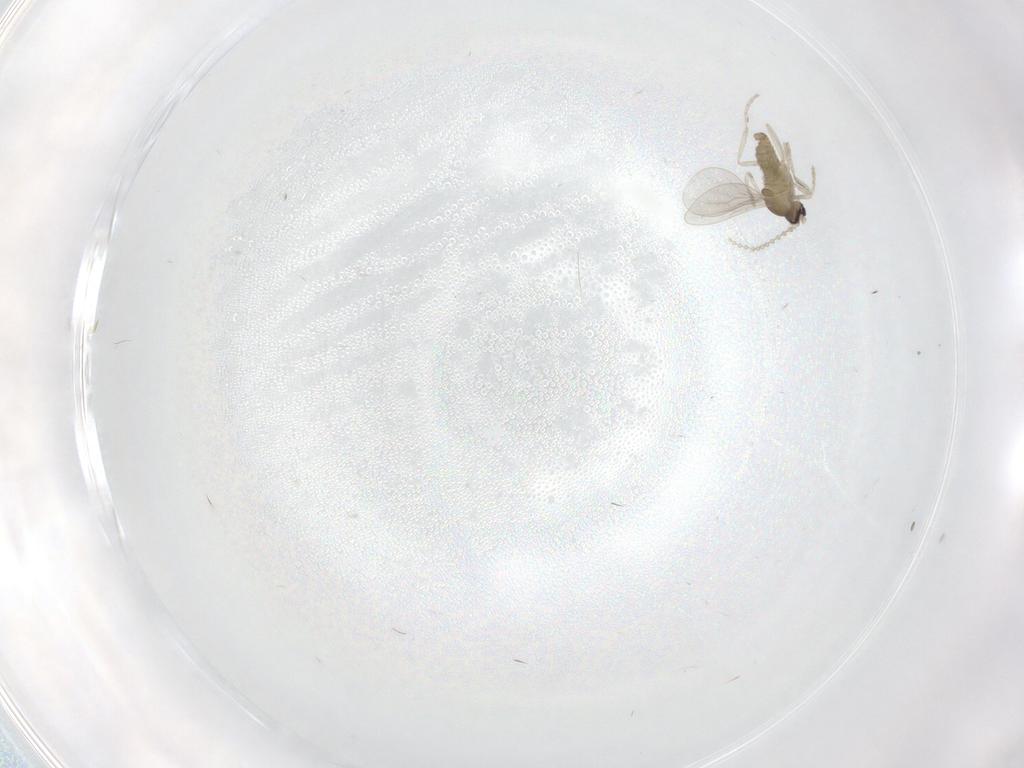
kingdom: Animalia
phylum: Arthropoda
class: Insecta
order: Diptera
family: Cecidomyiidae
